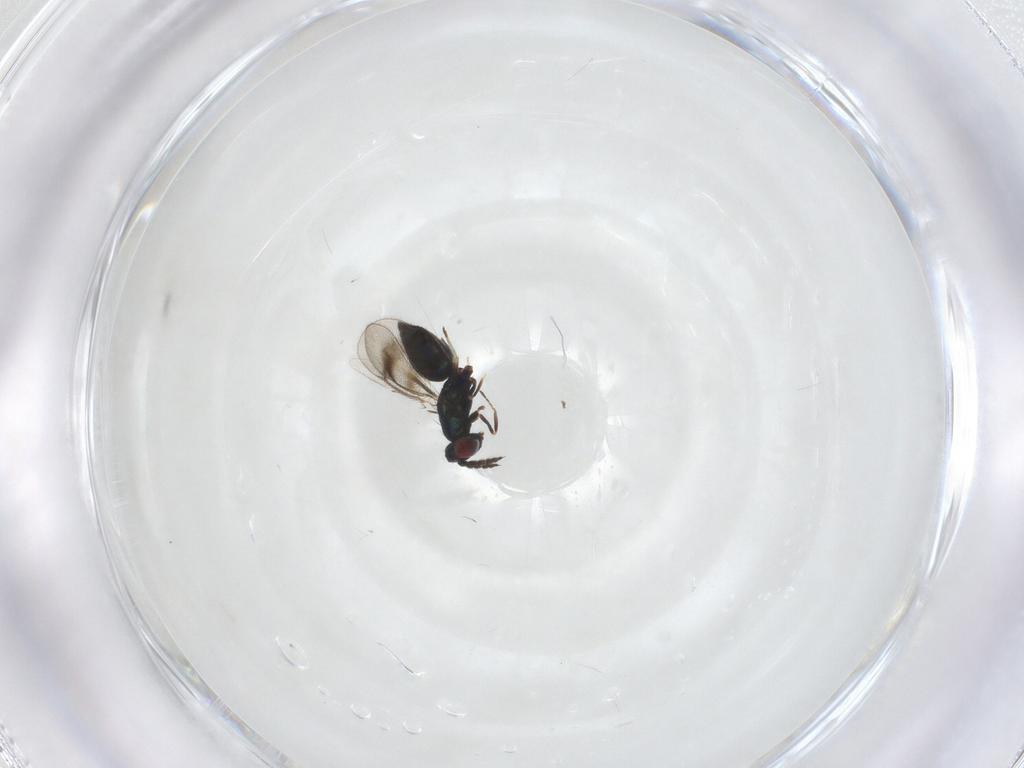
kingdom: Animalia
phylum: Arthropoda
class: Insecta
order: Hymenoptera
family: Eulophidae
